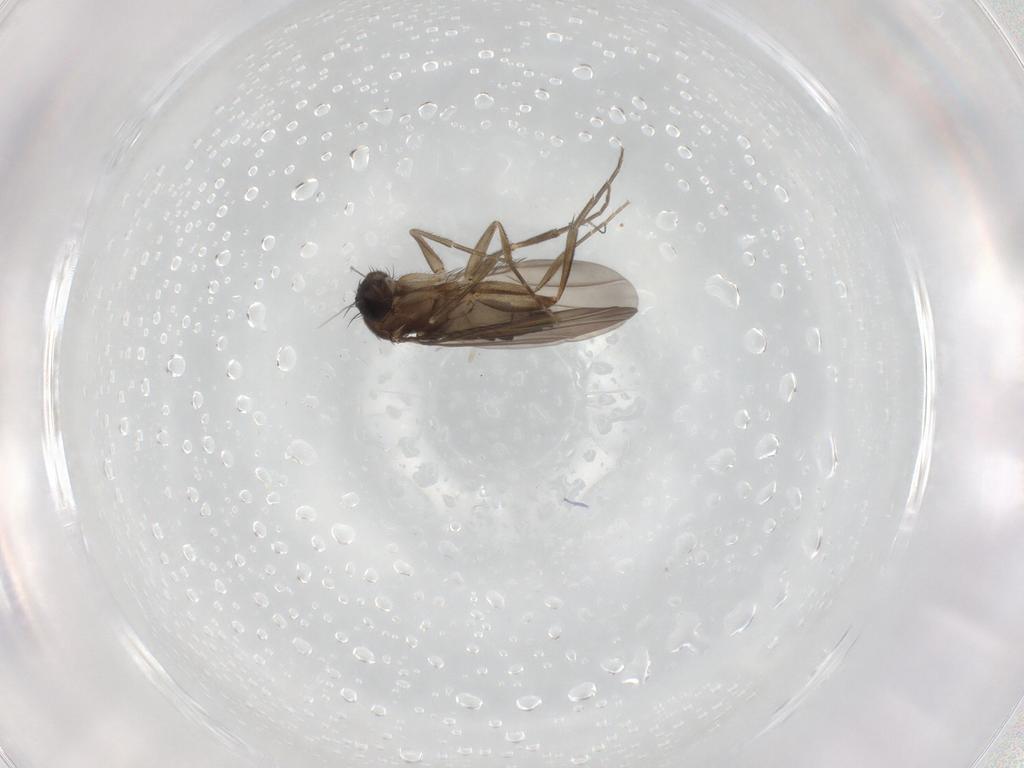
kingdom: Animalia
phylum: Arthropoda
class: Insecta
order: Diptera
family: Phoridae
